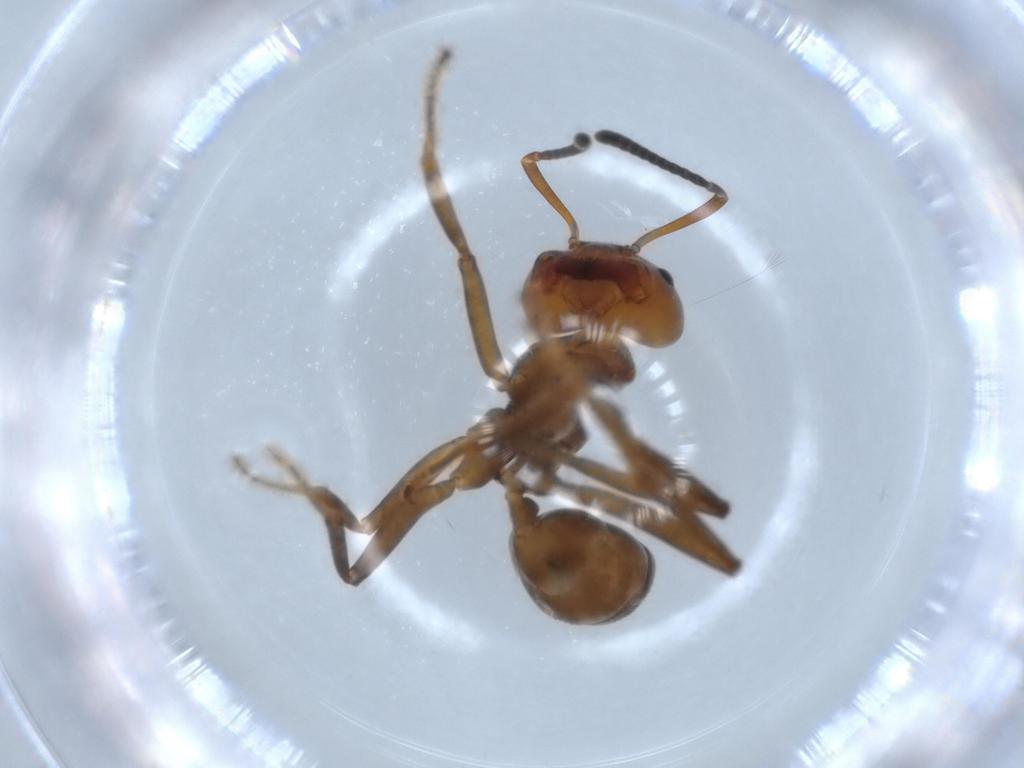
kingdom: Animalia
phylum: Arthropoda
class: Insecta
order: Hymenoptera
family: Formicidae
